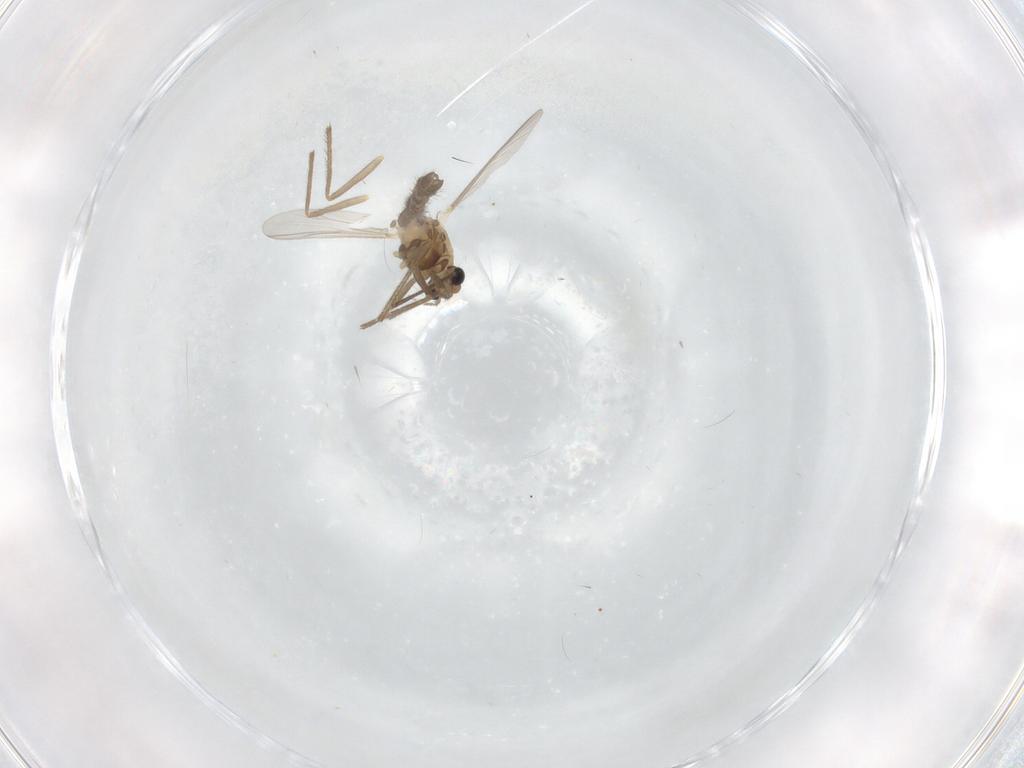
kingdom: Animalia
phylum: Arthropoda
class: Insecta
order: Diptera
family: Chironomidae
